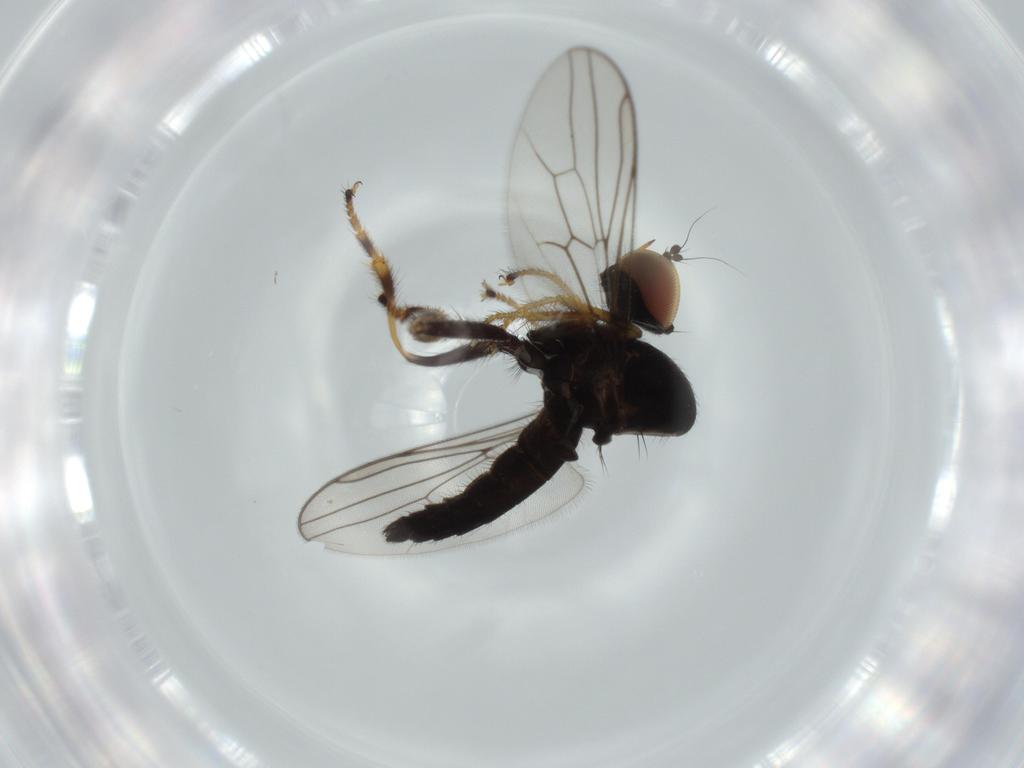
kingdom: Animalia
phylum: Arthropoda
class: Insecta
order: Diptera
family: Hybotidae
